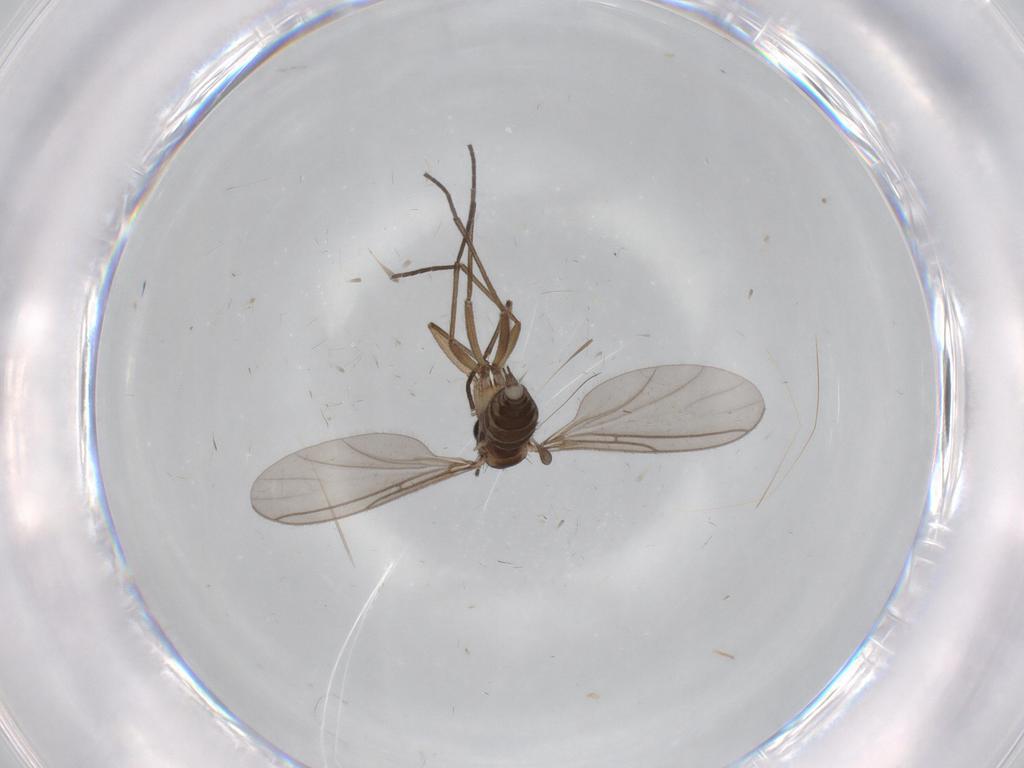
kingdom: Animalia
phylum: Arthropoda
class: Insecta
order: Diptera
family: Sciaridae
